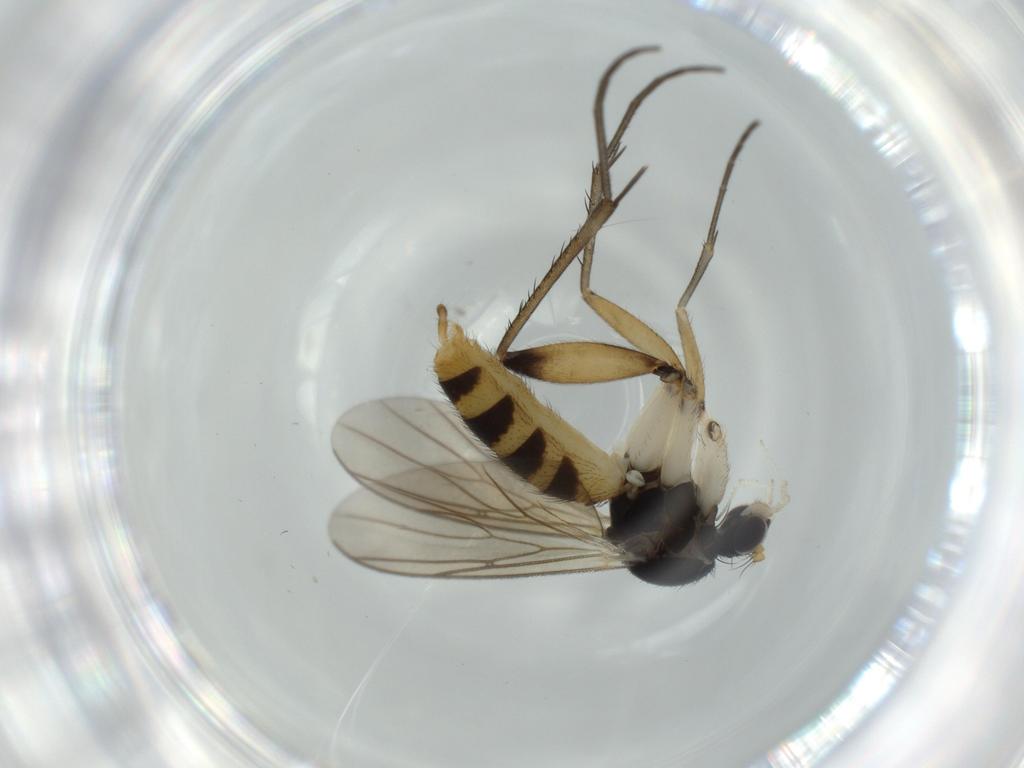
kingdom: Animalia
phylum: Arthropoda
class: Insecta
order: Diptera
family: Mycetophilidae
